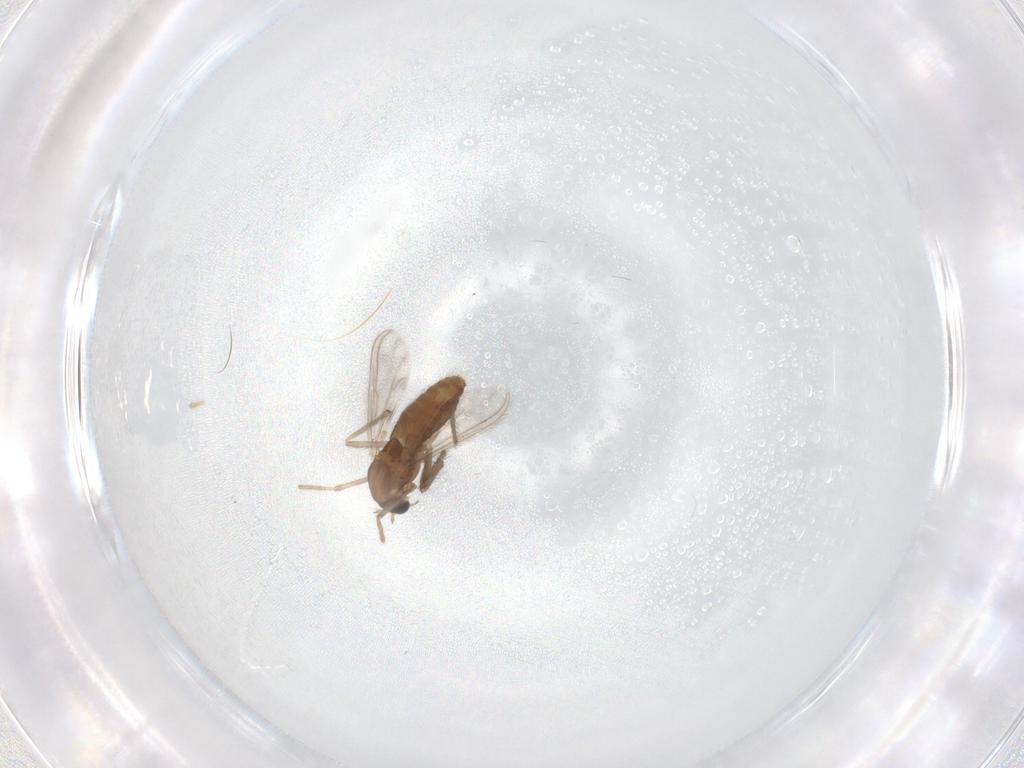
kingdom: Animalia
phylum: Arthropoda
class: Insecta
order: Diptera
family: Chironomidae
